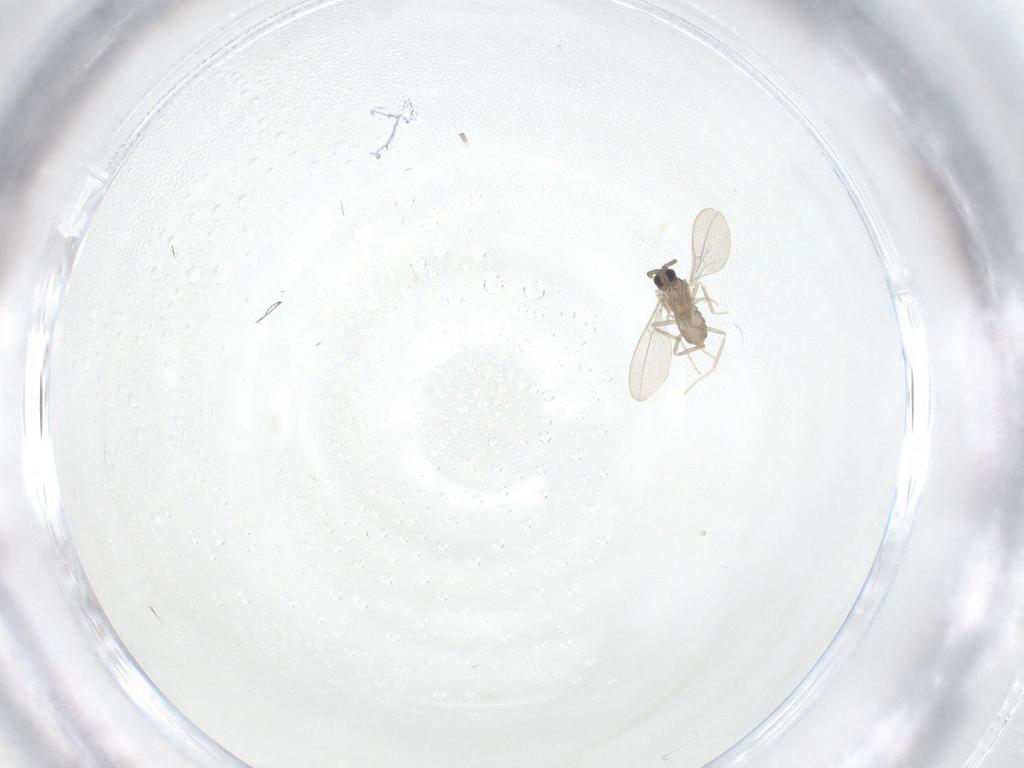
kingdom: Animalia
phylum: Arthropoda
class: Insecta
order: Diptera
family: Cecidomyiidae
